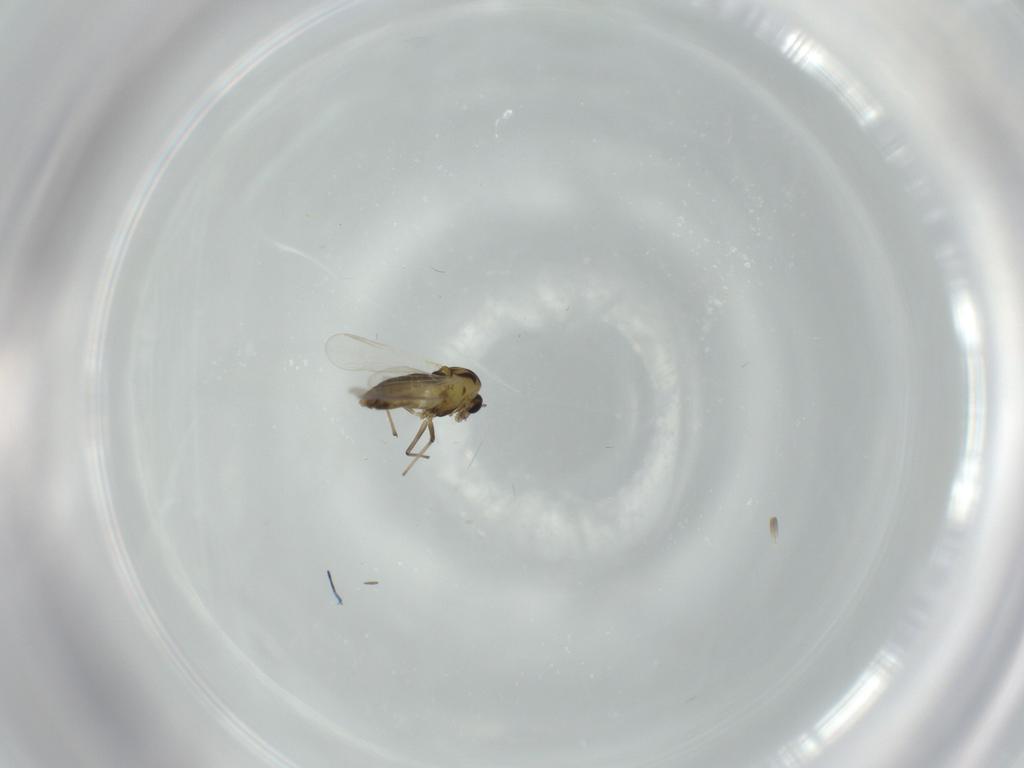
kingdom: Animalia
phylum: Arthropoda
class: Insecta
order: Diptera
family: Chironomidae
